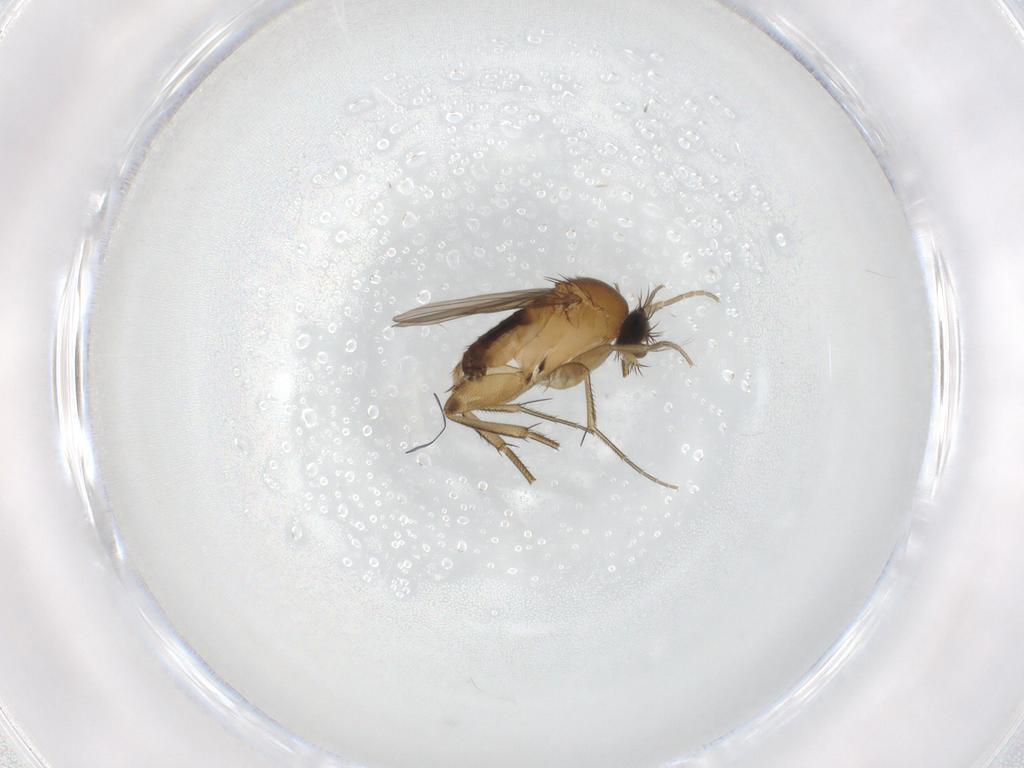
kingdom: Animalia
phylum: Arthropoda
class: Insecta
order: Diptera
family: Phoridae
